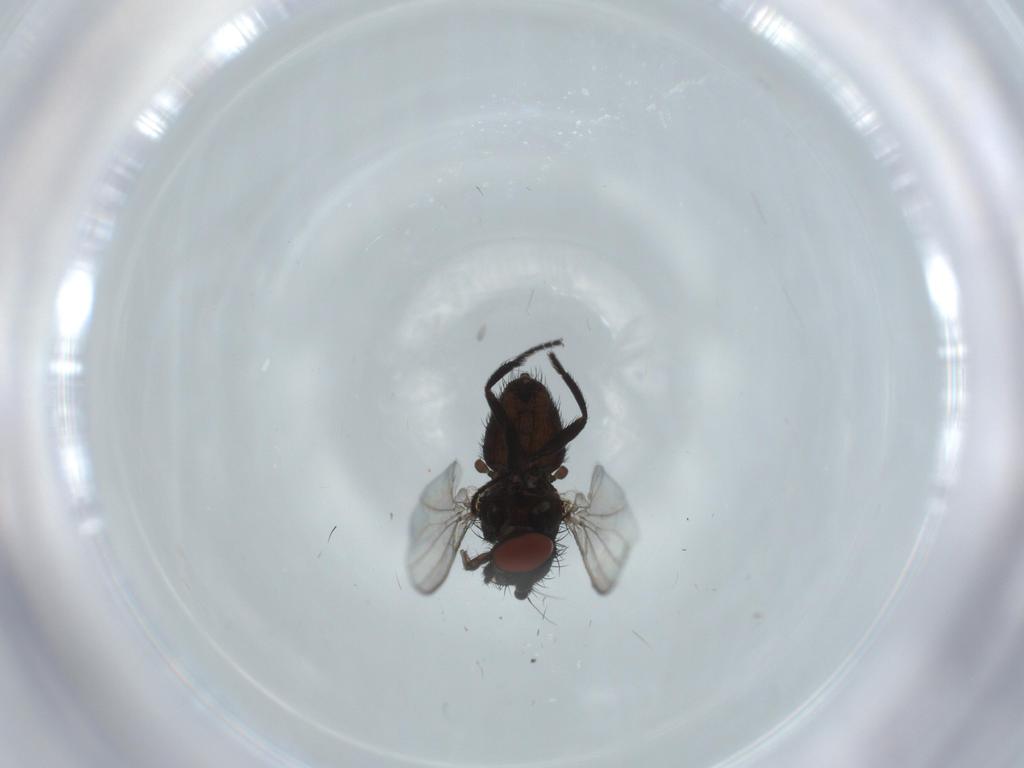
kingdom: Animalia
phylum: Arthropoda
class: Insecta
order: Diptera
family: Milichiidae
